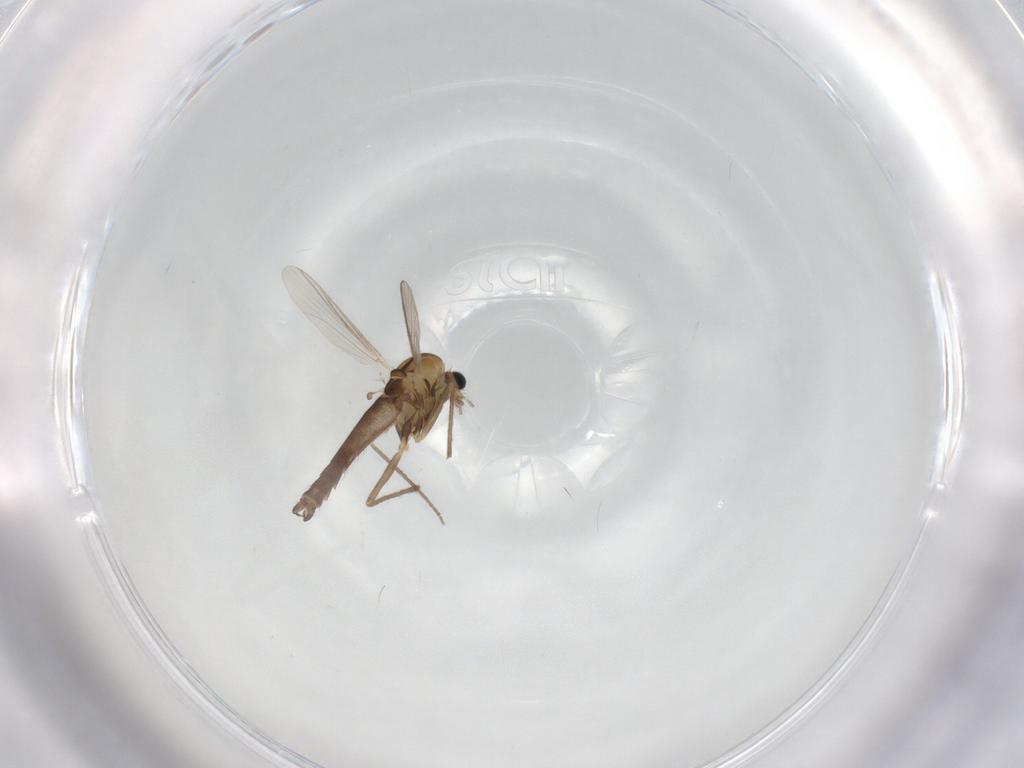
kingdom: Animalia
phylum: Arthropoda
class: Insecta
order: Diptera
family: Chironomidae
